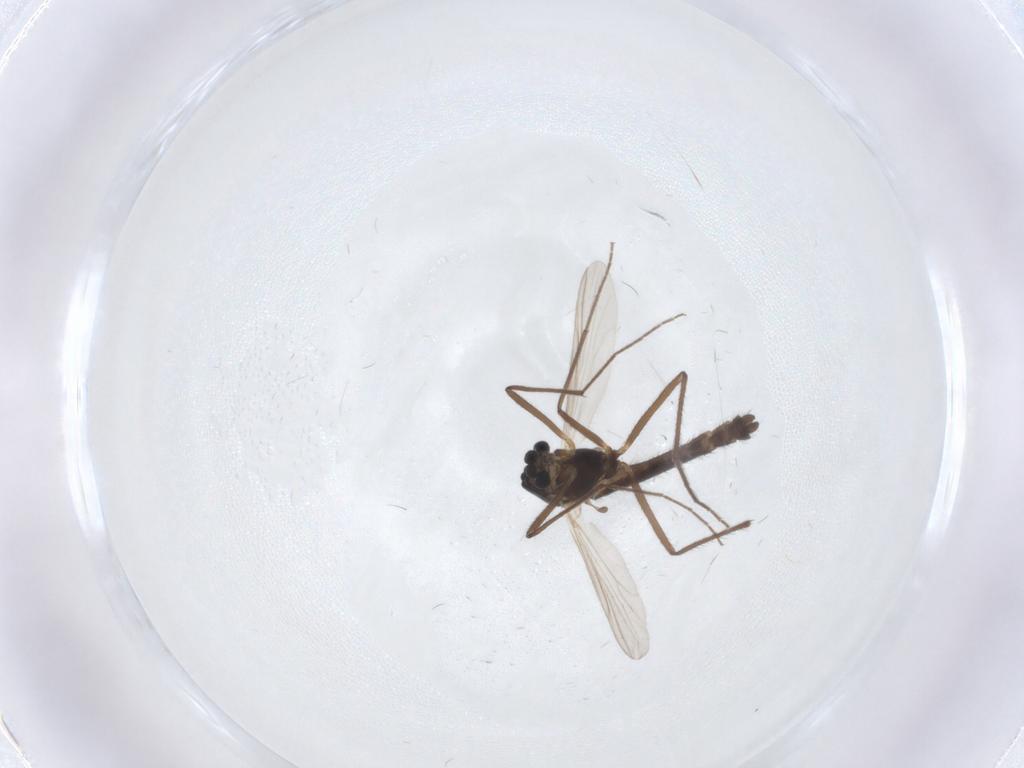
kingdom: Animalia
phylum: Arthropoda
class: Insecta
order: Diptera
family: Chironomidae
